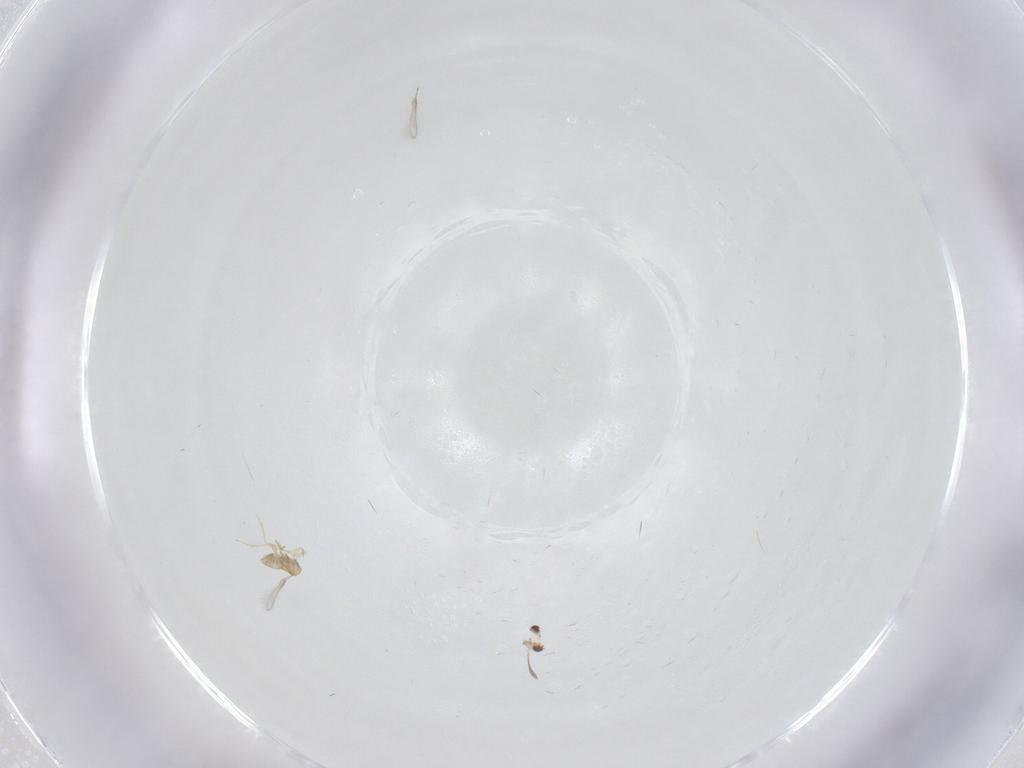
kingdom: Animalia
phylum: Arthropoda
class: Insecta
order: Hymenoptera
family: Mymaridae
